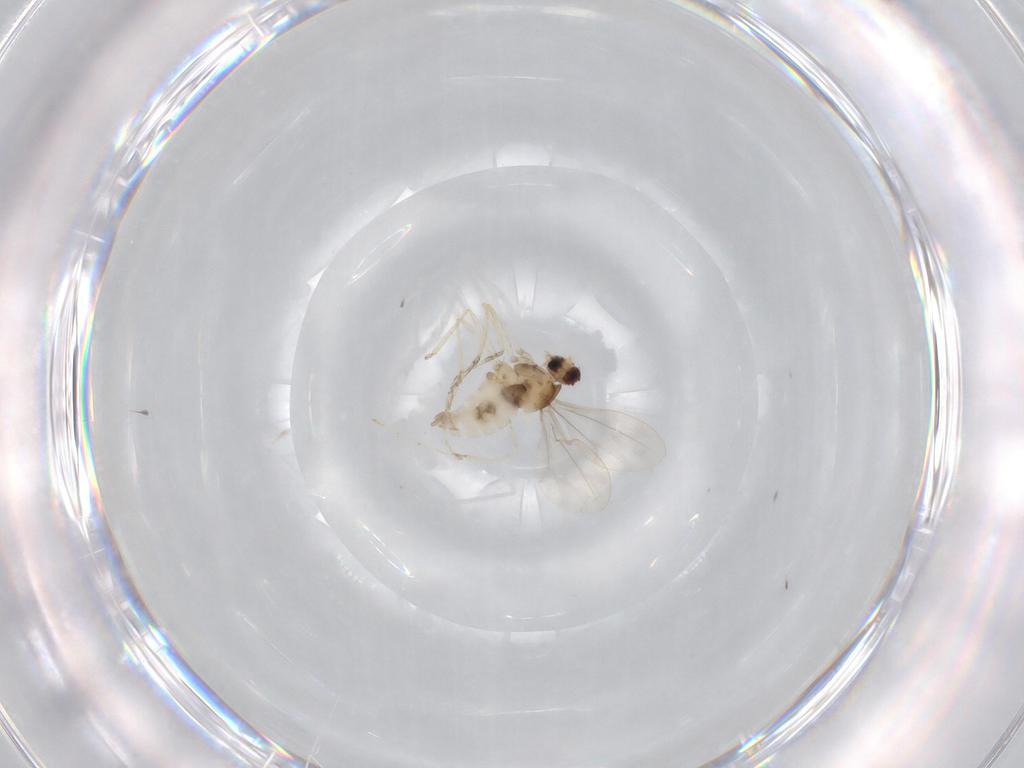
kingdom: Animalia
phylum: Arthropoda
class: Insecta
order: Diptera
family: Cecidomyiidae
